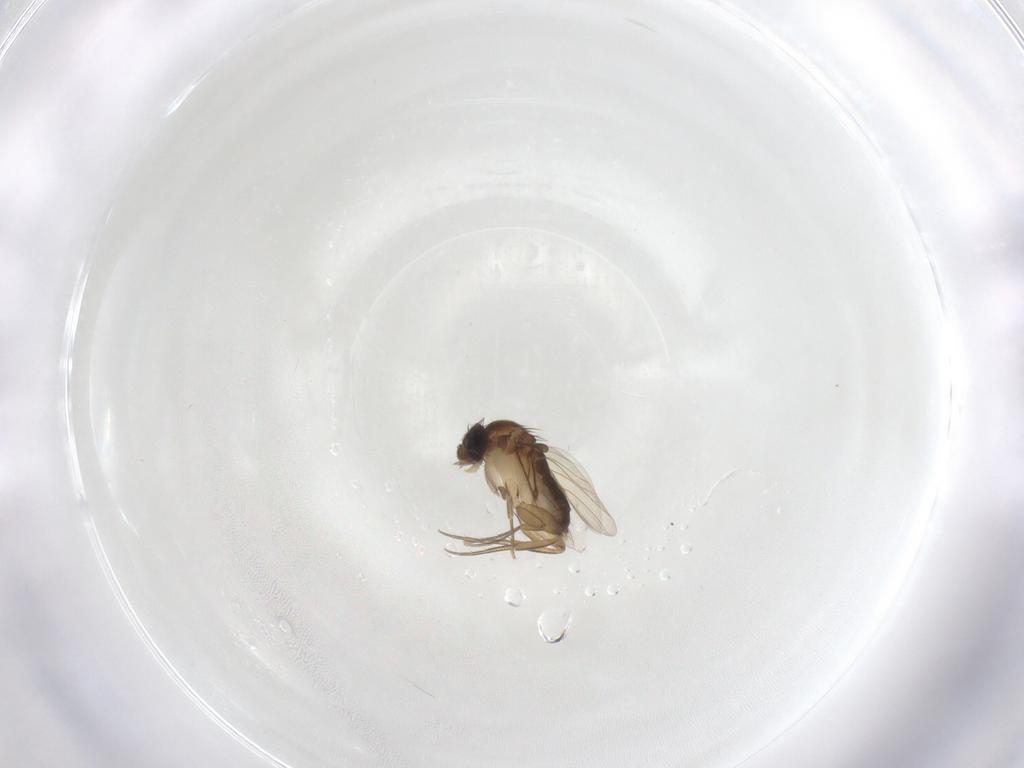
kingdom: Animalia
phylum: Arthropoda
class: Insecta
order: Diptera
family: Phoridae
